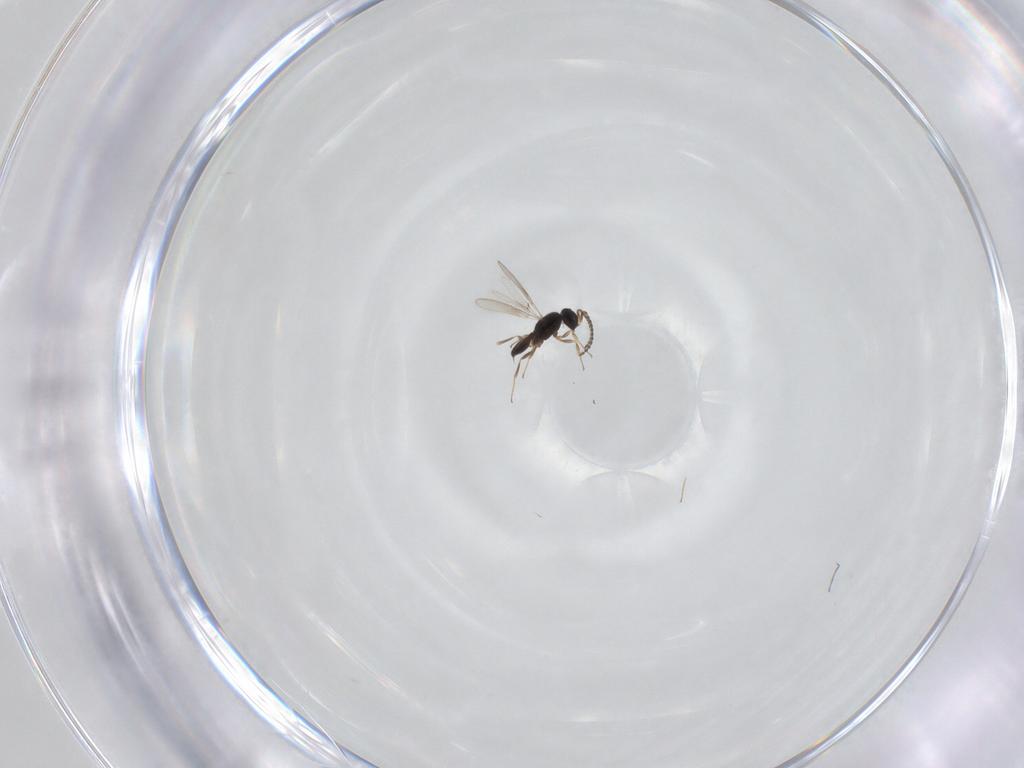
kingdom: Animalia
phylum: Arthropoda
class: Insecta
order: Hymenoptera
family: Scelionidae
